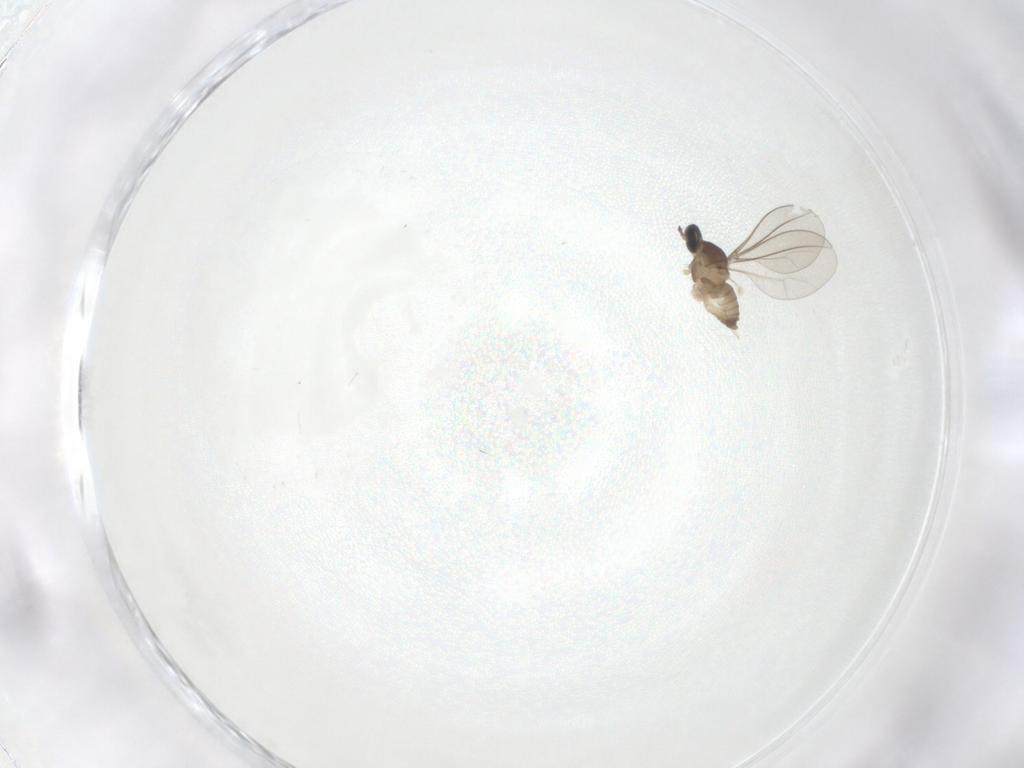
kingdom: Animalia
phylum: Arthropoda
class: Insecta
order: Diptera
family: Cecidomyiidae
